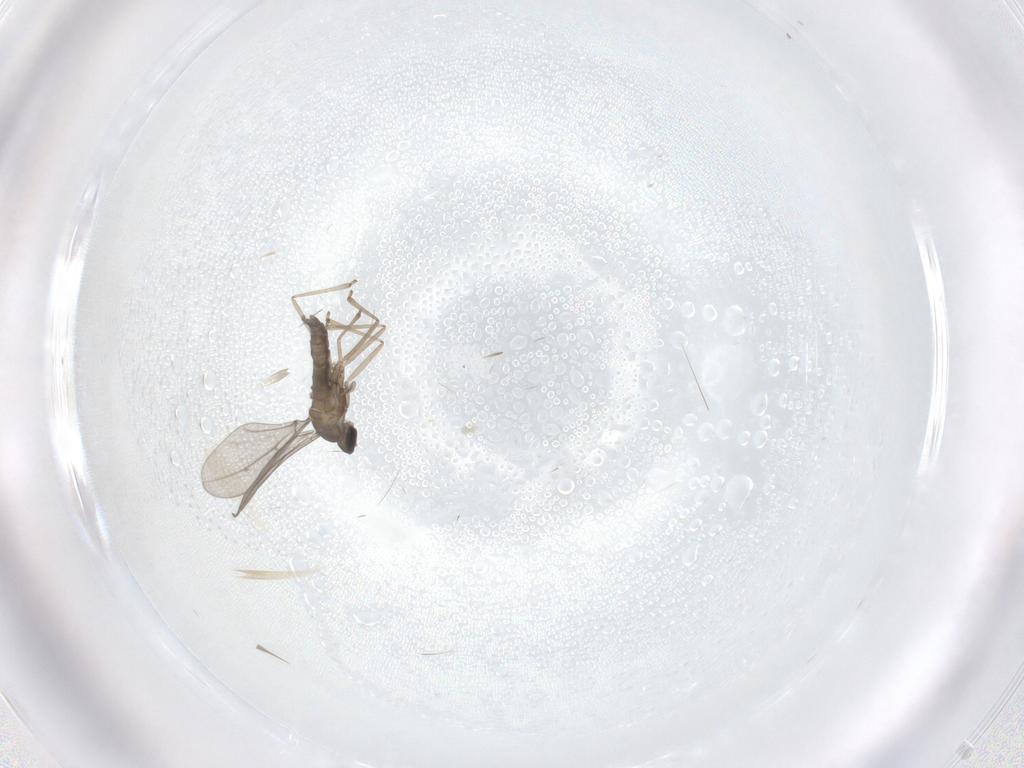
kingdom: Animalia
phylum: Arthropoda
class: Insecta
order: Diptera
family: Cecidomyiidae
